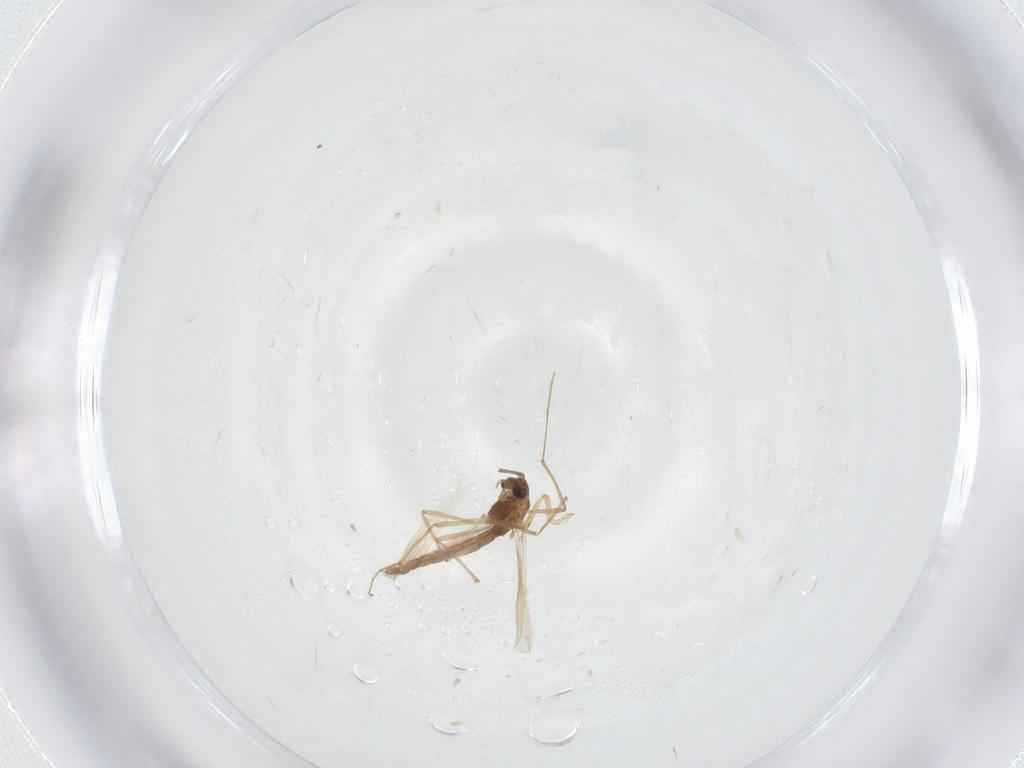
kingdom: Animalia
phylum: Arthropoda
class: Insecta
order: Diptera
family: Chironomidae
